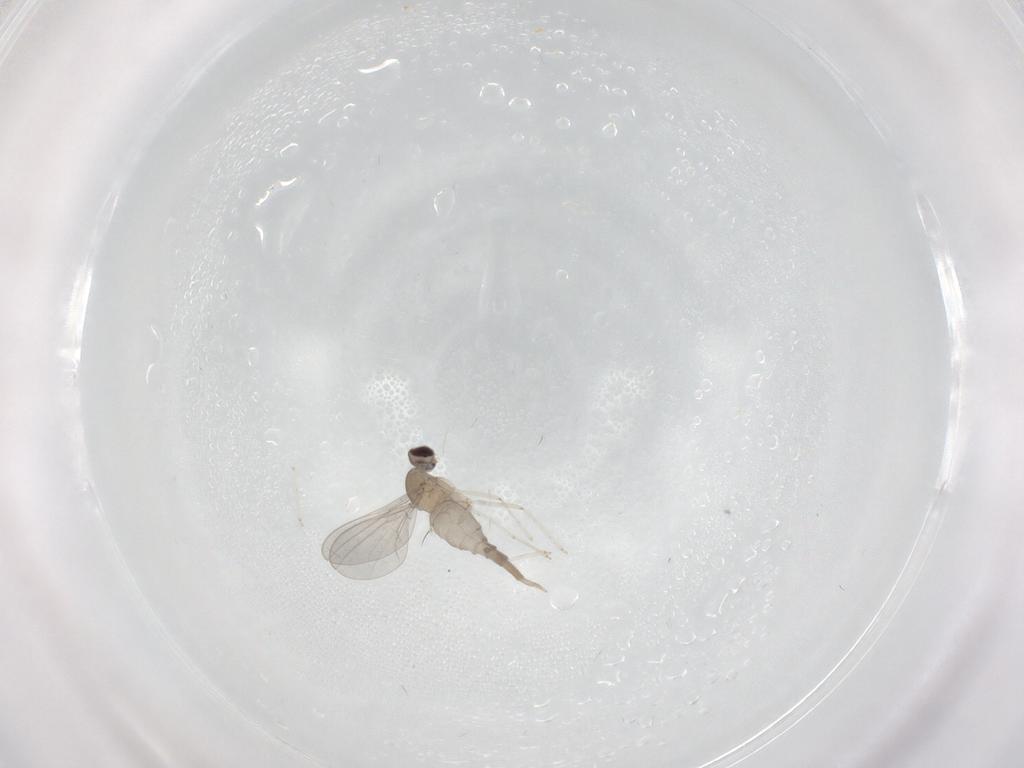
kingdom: Animalia
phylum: Arthropoda
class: Insecta
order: Diptera
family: Cecidomyiidae
